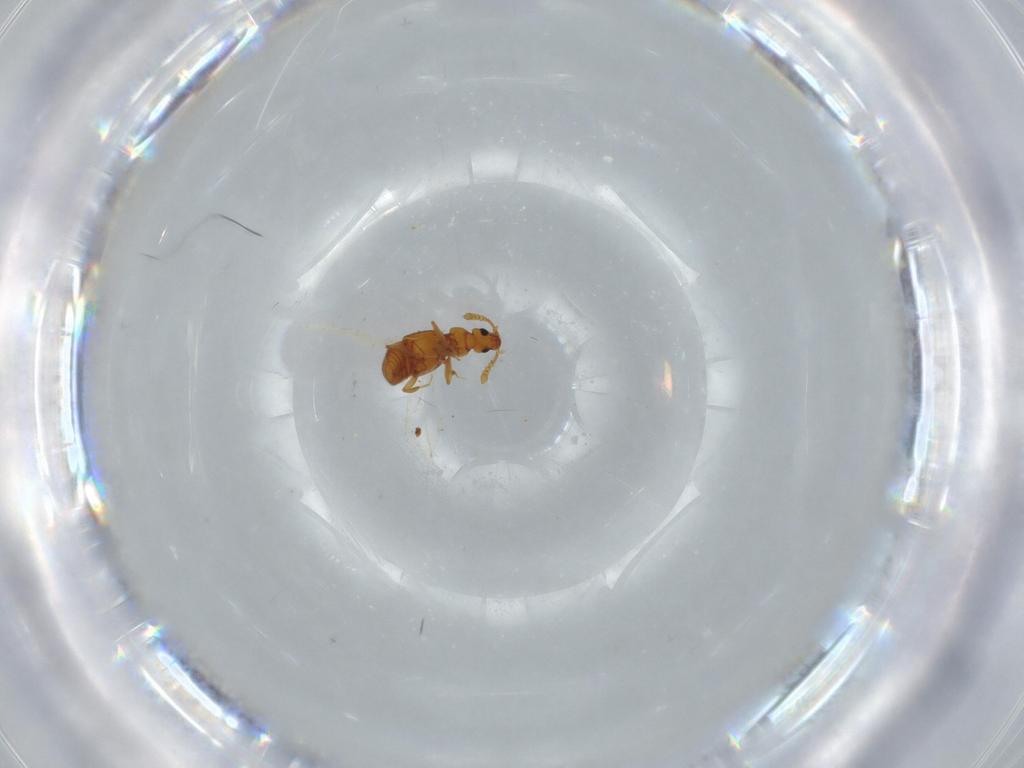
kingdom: Animalia
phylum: Arthropoda
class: Insecta
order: Coleoptera
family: Staphylinidae
